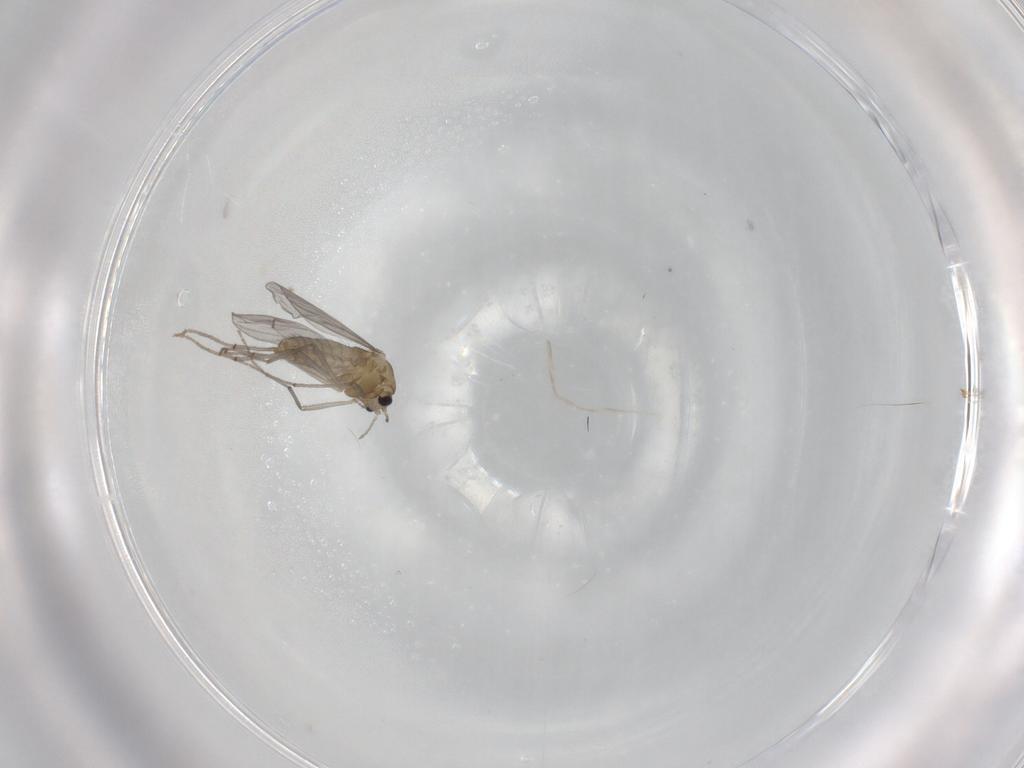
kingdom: Animalia
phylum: Arthropoda
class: Insecta
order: Diptera
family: Chironomidae
